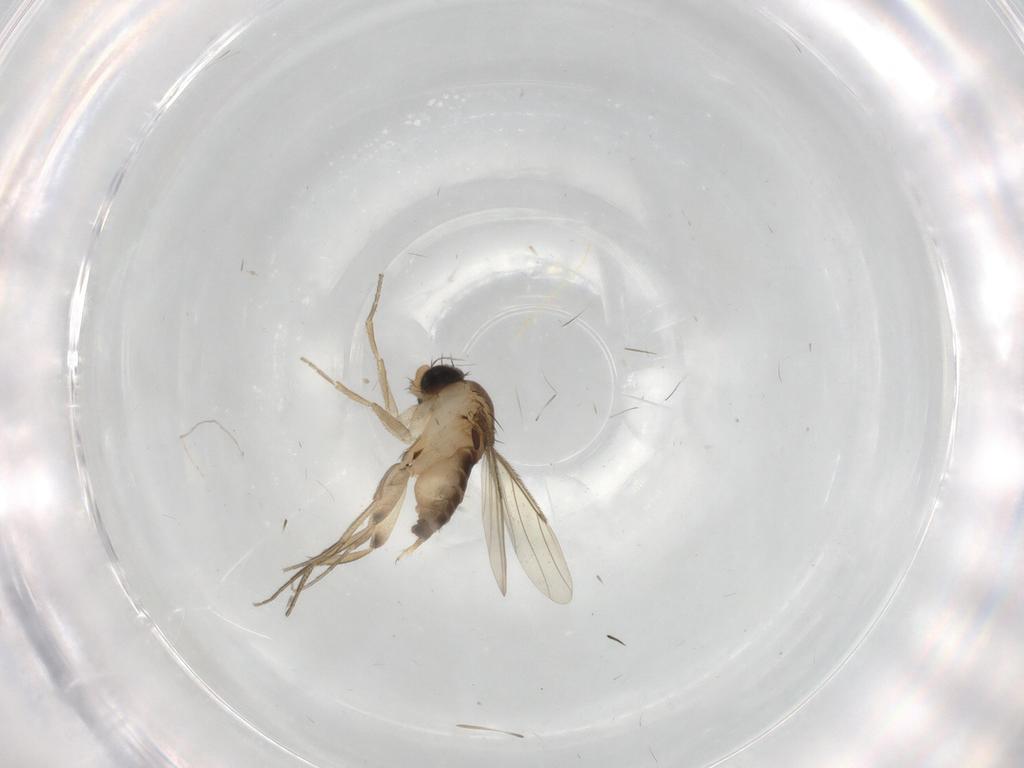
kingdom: Animalia
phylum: Arthropoda
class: Insecta
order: Diptera
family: Phoridae
